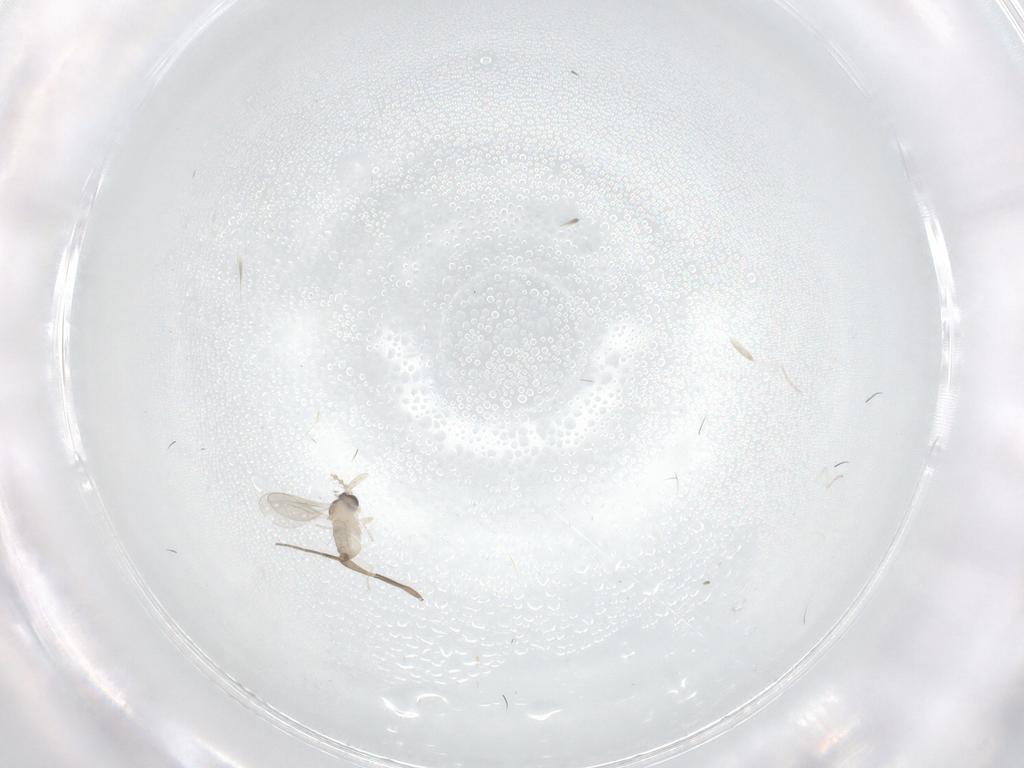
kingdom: Animalia
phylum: Arthropoda
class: Insecta
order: Diptera
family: Cecidomyiidae
